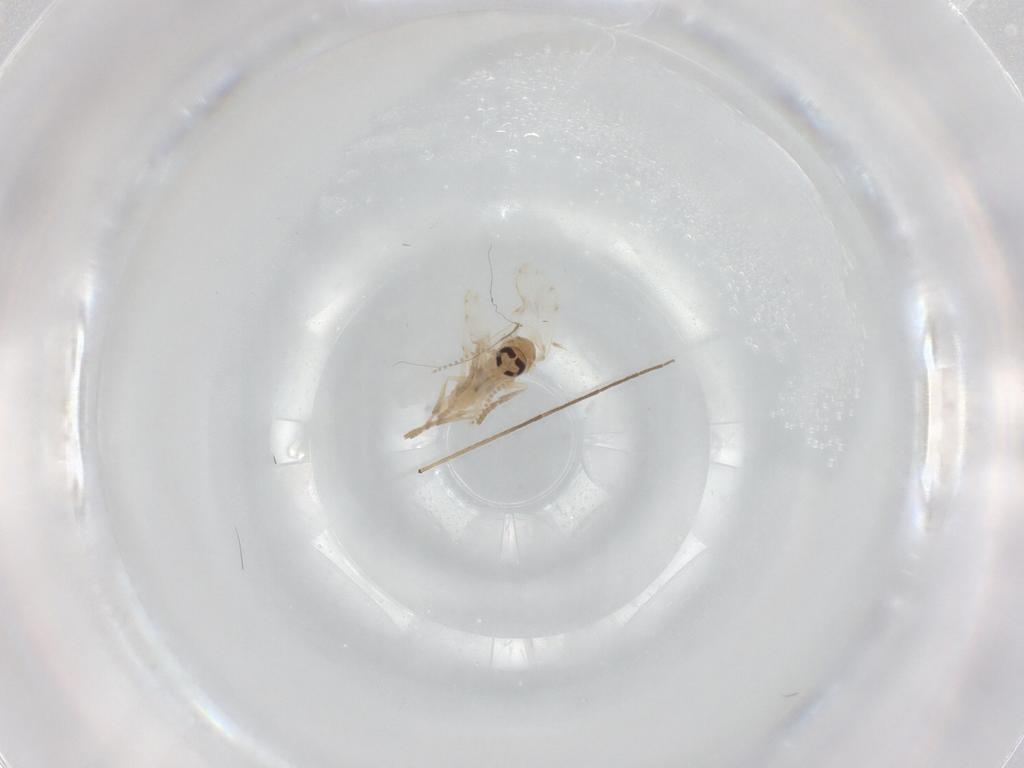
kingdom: Animalia
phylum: Arthropoda
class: Insecta
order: Diptera
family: Psychodidae
